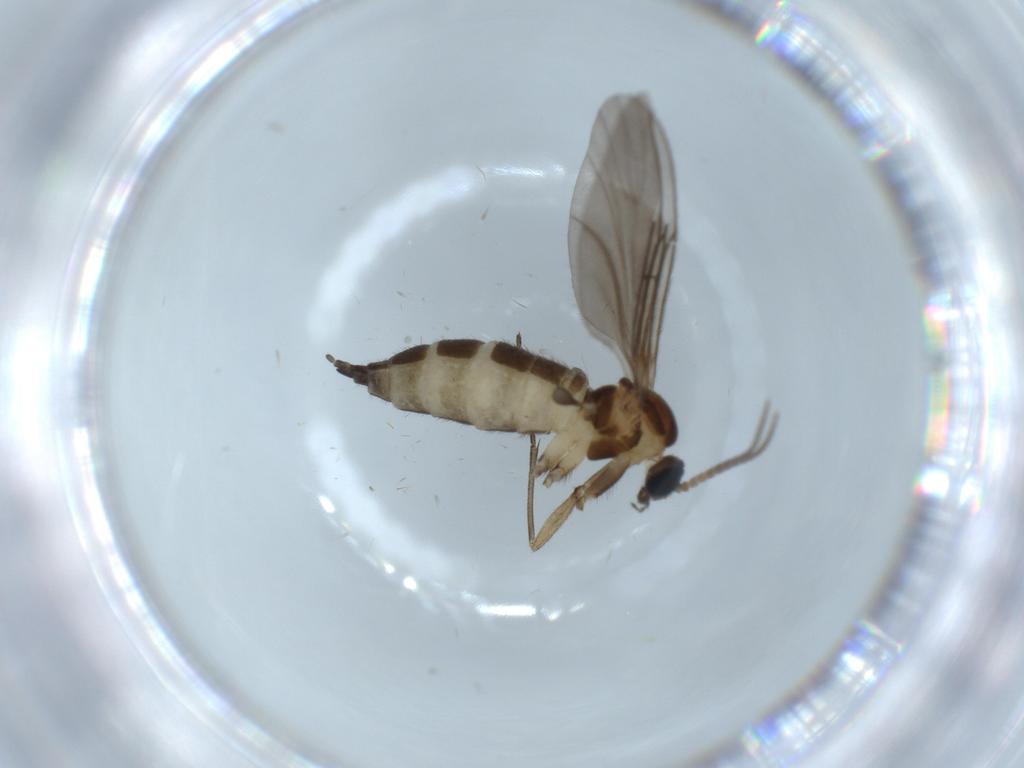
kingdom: Animalia
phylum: Arthropoda
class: Insecta
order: Diptera
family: Sciaridae
